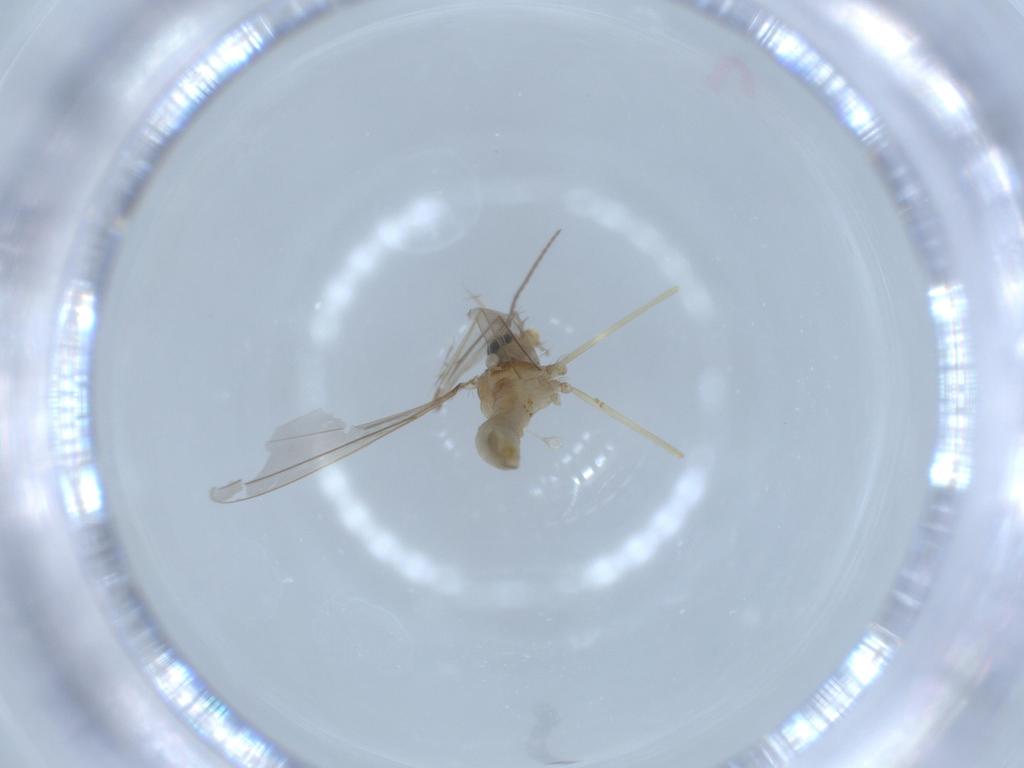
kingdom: Animalia
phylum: Arthropoda
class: Insecta
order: Diptera
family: Cecidomyiidae
